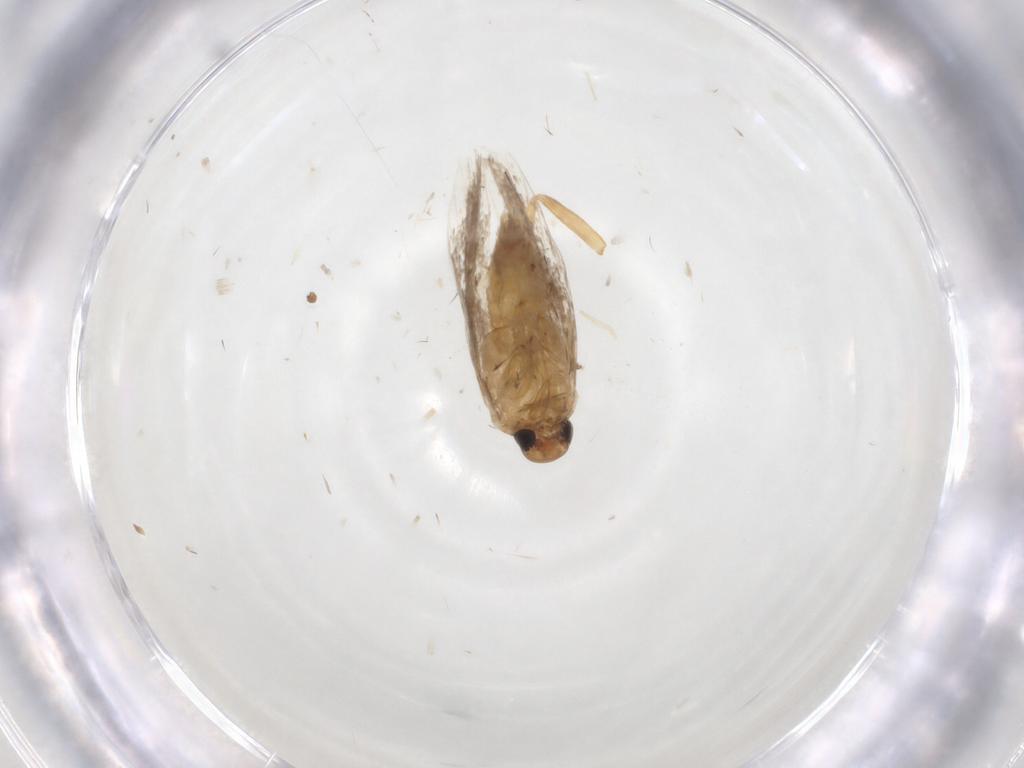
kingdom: Animalia
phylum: Arthropoda
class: Insecta
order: Lepidoptera
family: Gelechiidae
